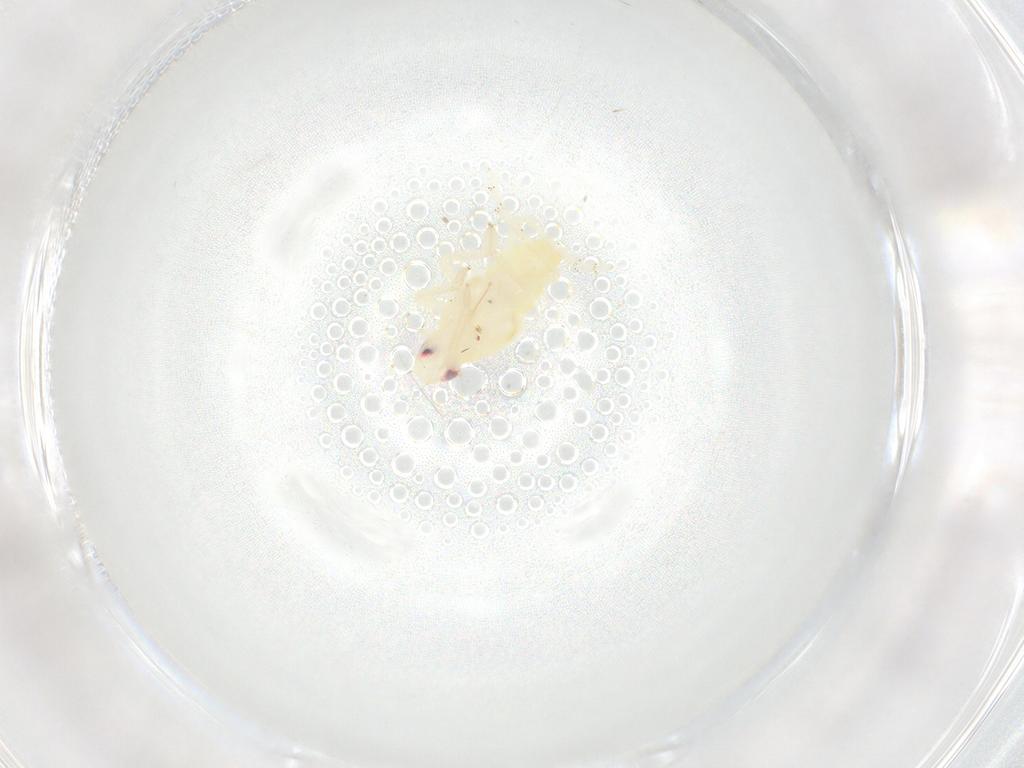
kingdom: Animalia
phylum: Arthropoda
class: Insecta
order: Hemiptera
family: Tropiduchidae
